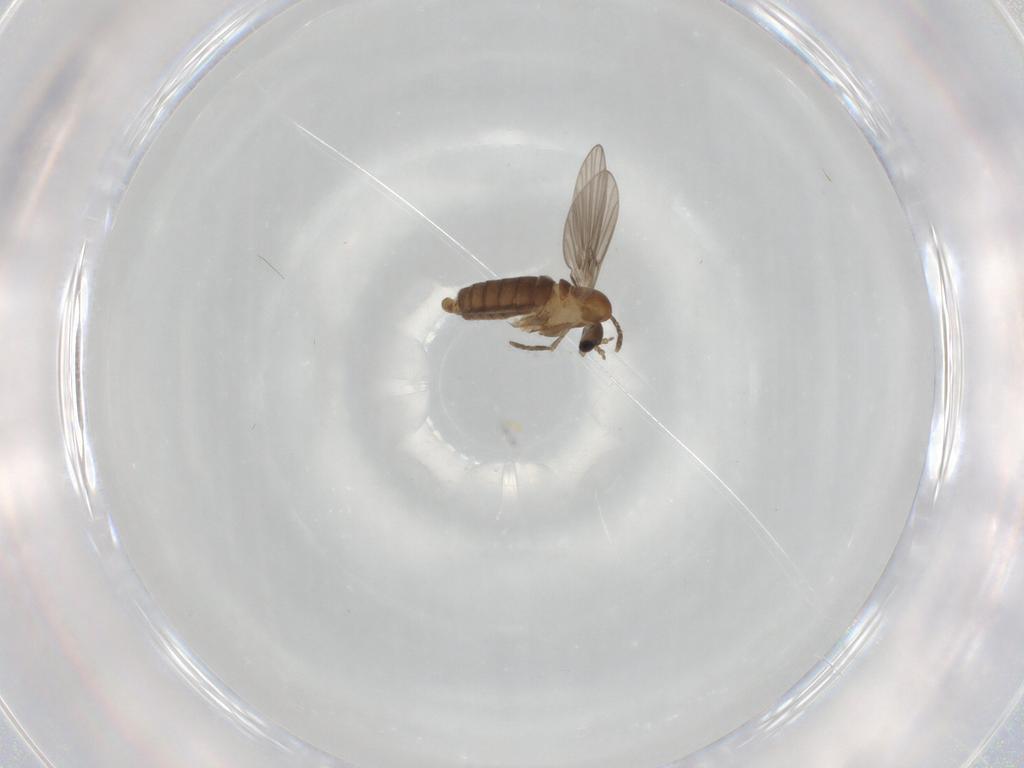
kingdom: Animalia
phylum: Arthropoda
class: Insecta
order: Diptera
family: Psychodidae
